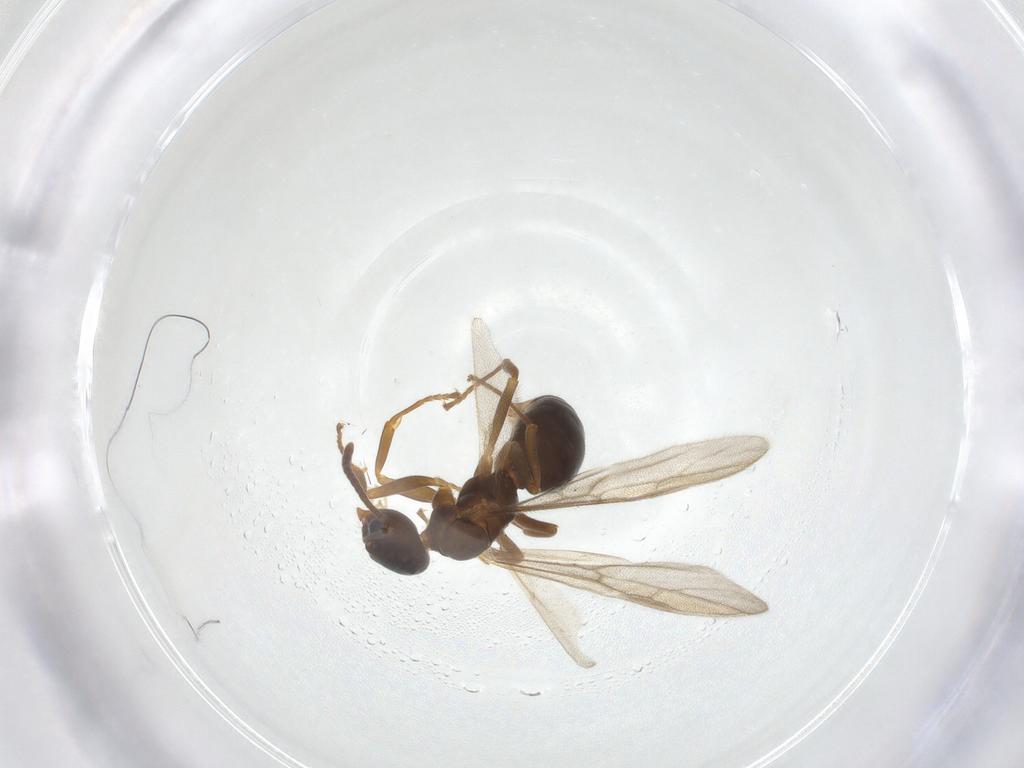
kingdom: Animalia
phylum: Arthropoda
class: Insecta
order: Hymenoptera
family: Formicidae
